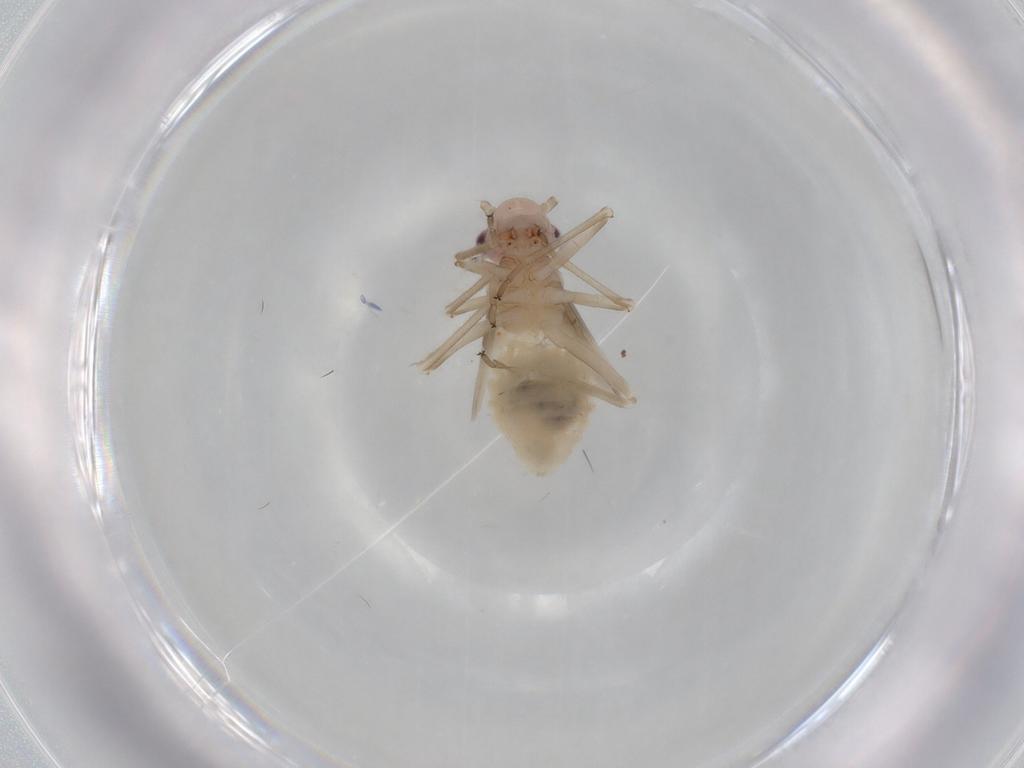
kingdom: Animalia
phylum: Arthropoda
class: Insecta
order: Psocodea
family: Stenopsocidae
